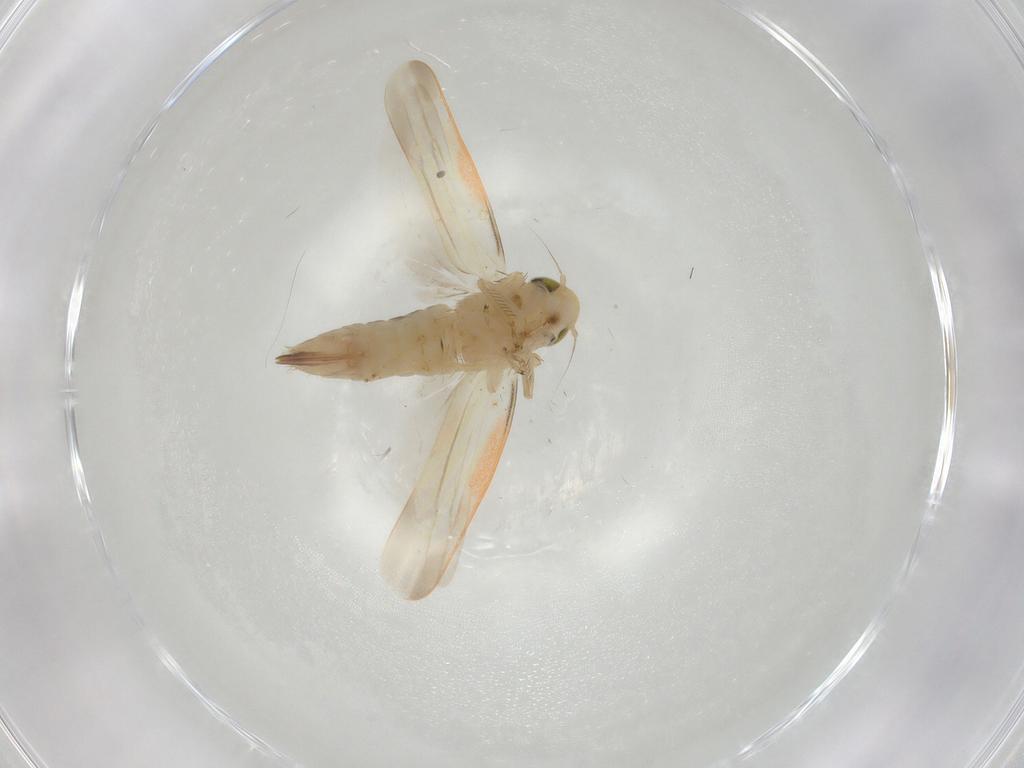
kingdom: Animalia
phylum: Arthropoda
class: Insecta
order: Hemiptera
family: Cicadellidae
